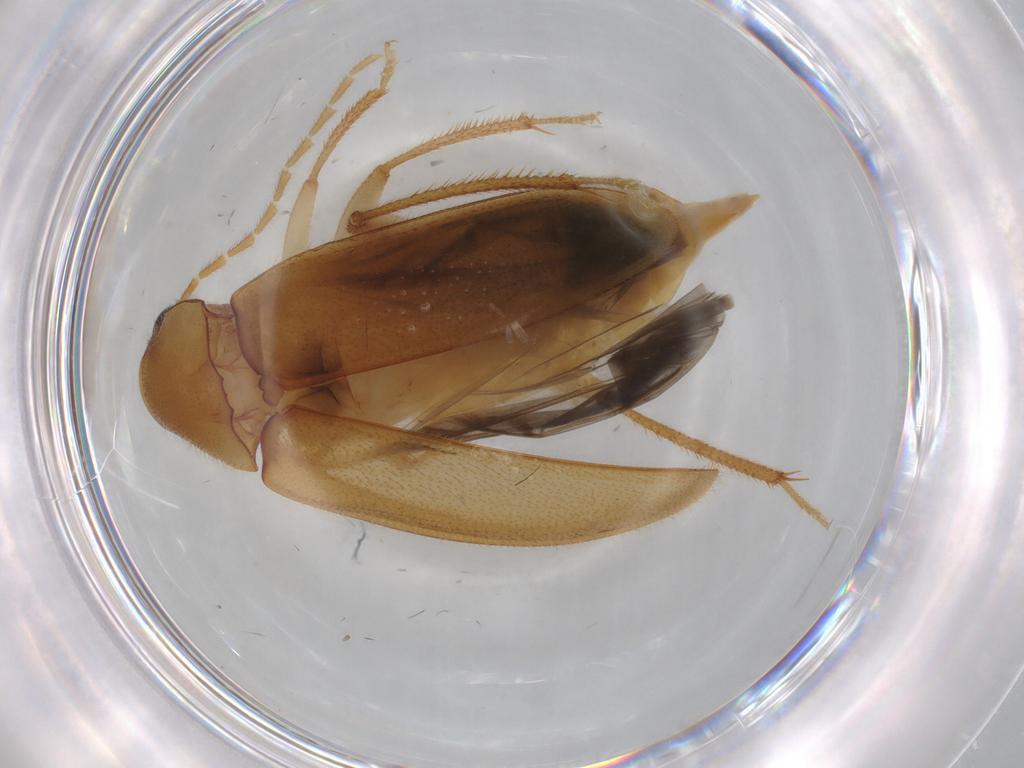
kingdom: Animalia
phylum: Arthropoda
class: Insecta
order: Coleoptera
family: Ptilodactylidae
